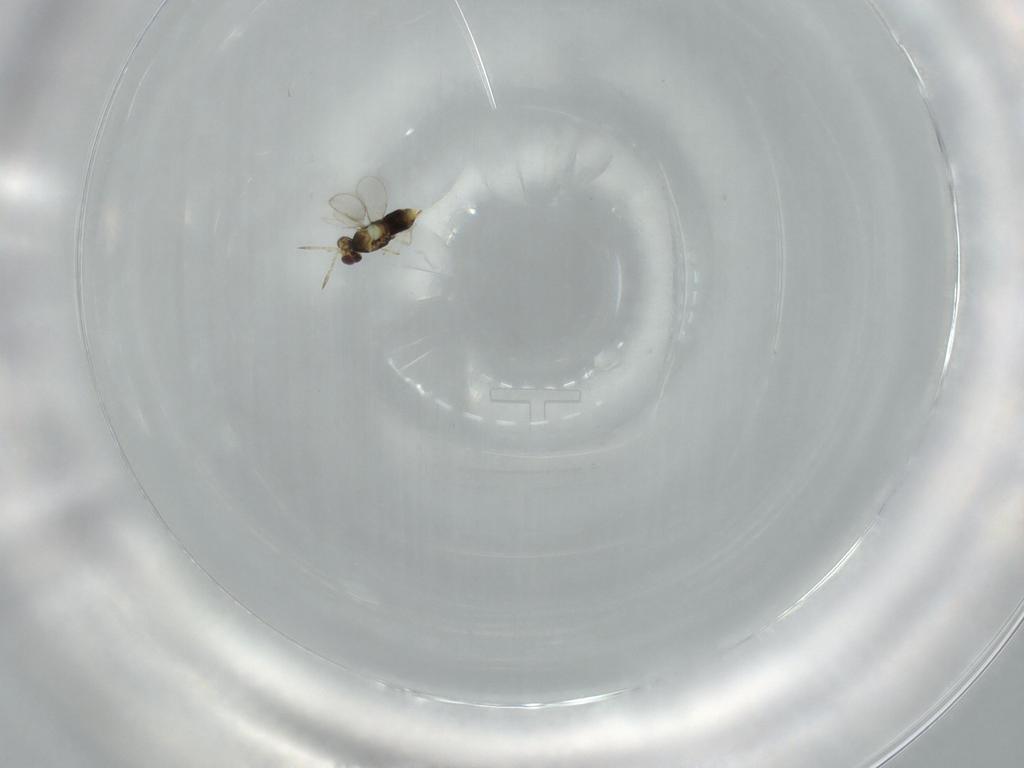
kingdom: Animalia
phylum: Arthropoda
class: Insecta
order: Hymenoptera
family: Aphelinidae
